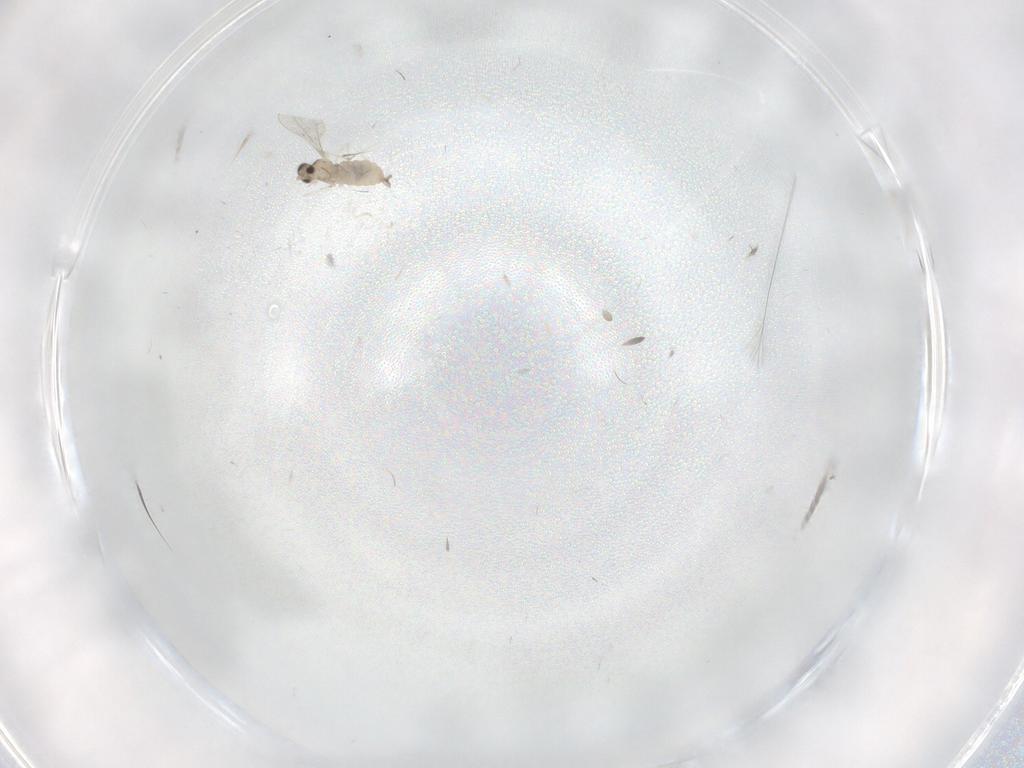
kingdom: Animalia
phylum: Arthropoda
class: Insecta
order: Diptera
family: Cecidomyiidae
